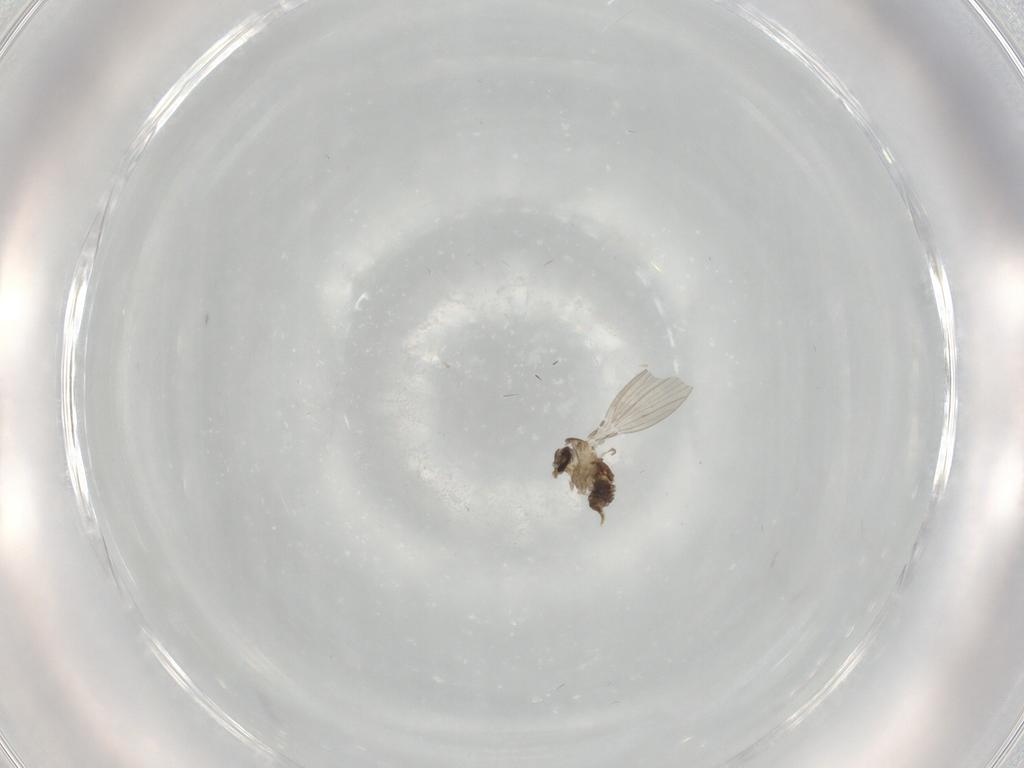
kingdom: Animalia
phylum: Arthropoda
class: Insecta
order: Diptera
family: Psychodidae
